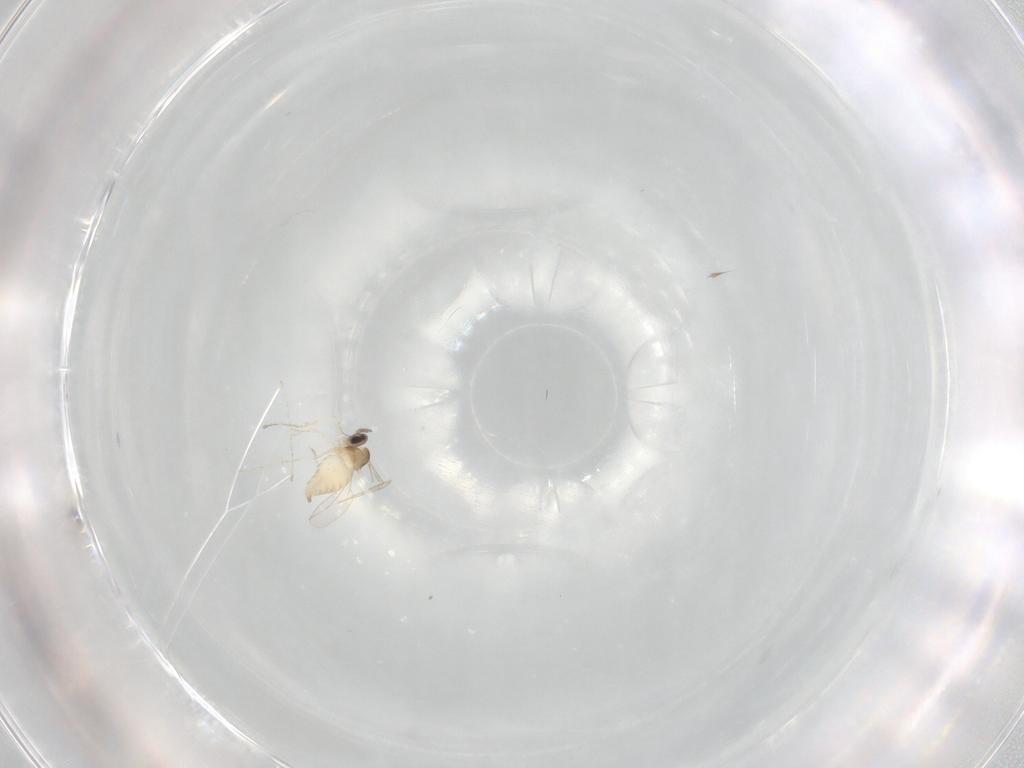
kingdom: Animalia
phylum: Arthropoda
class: Insecta
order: Diptera
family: Cecidomyiidae
